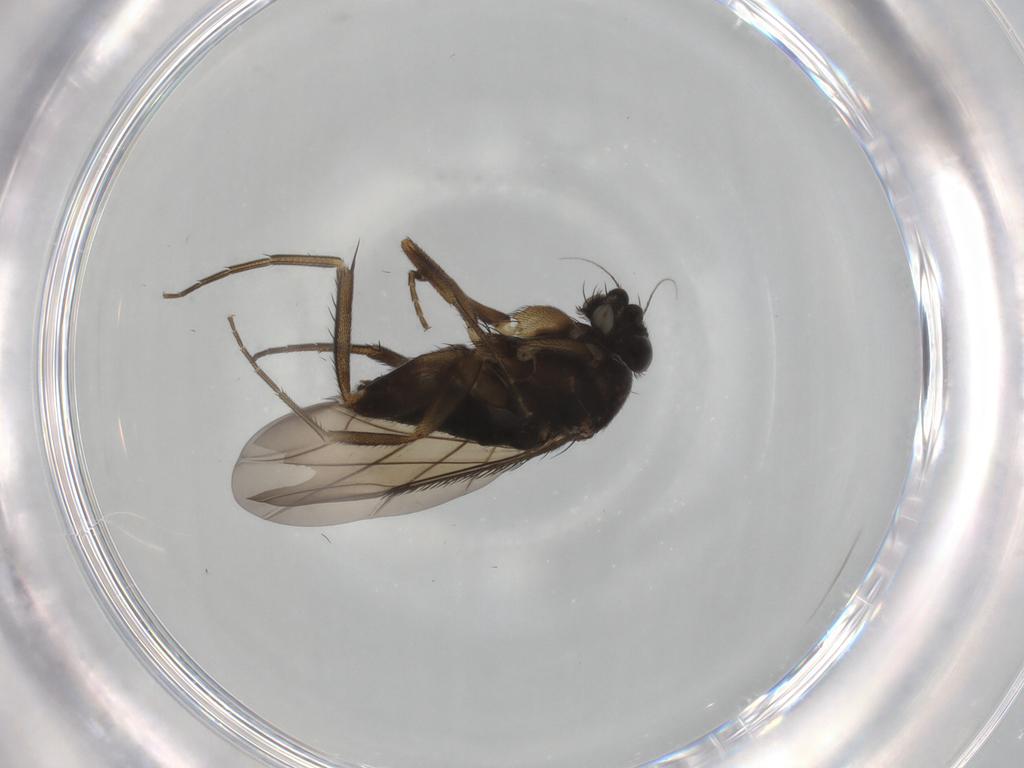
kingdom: Animalia
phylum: Arthropoda
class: Insecta
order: Diptera
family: Phoridae
